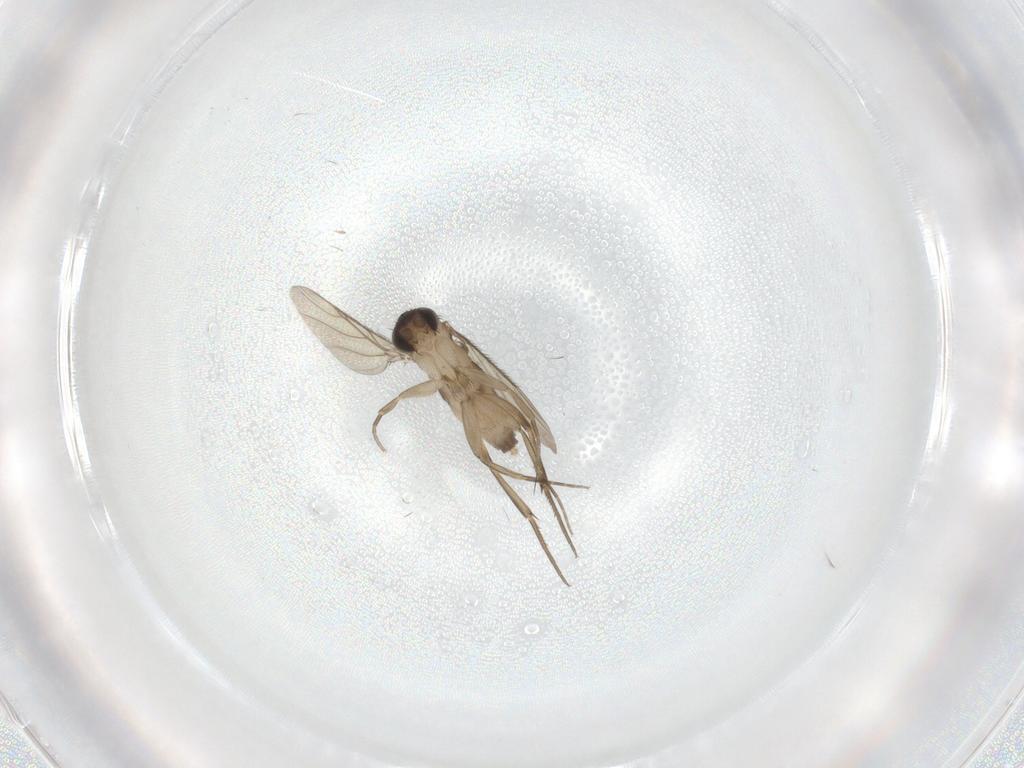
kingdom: Animalia
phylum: Arthropoda
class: Insecta
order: Diptera
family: Phoridae
